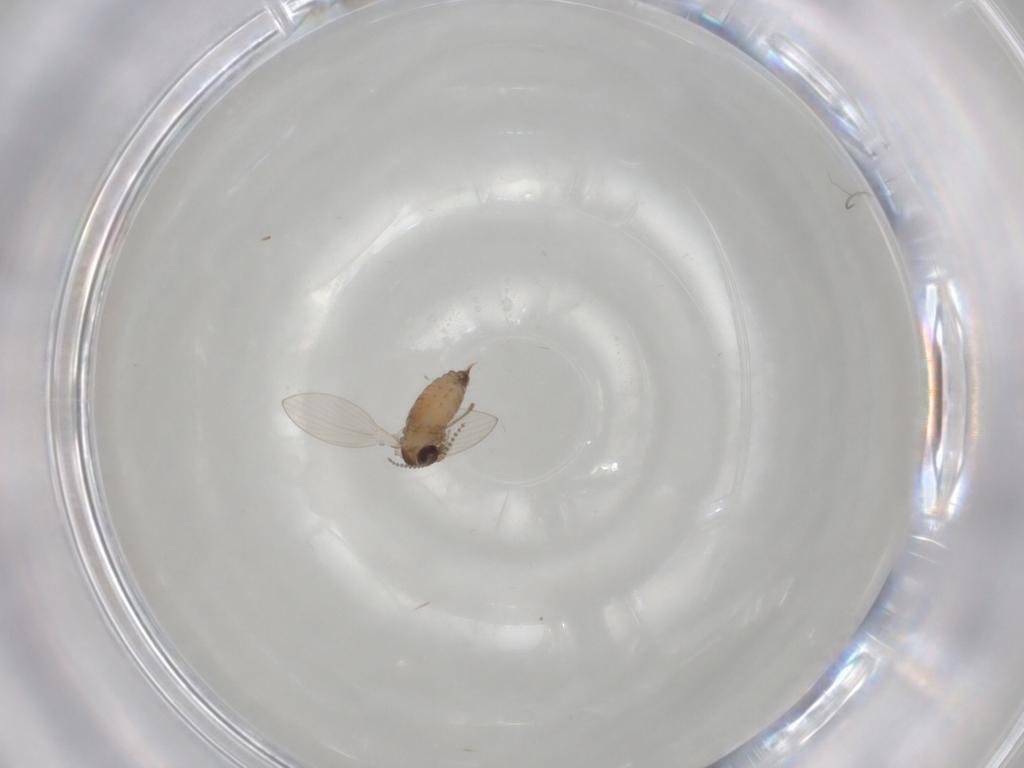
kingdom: Animalia
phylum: Arthropoda
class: Insecta
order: Diptera
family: Psychodidae
